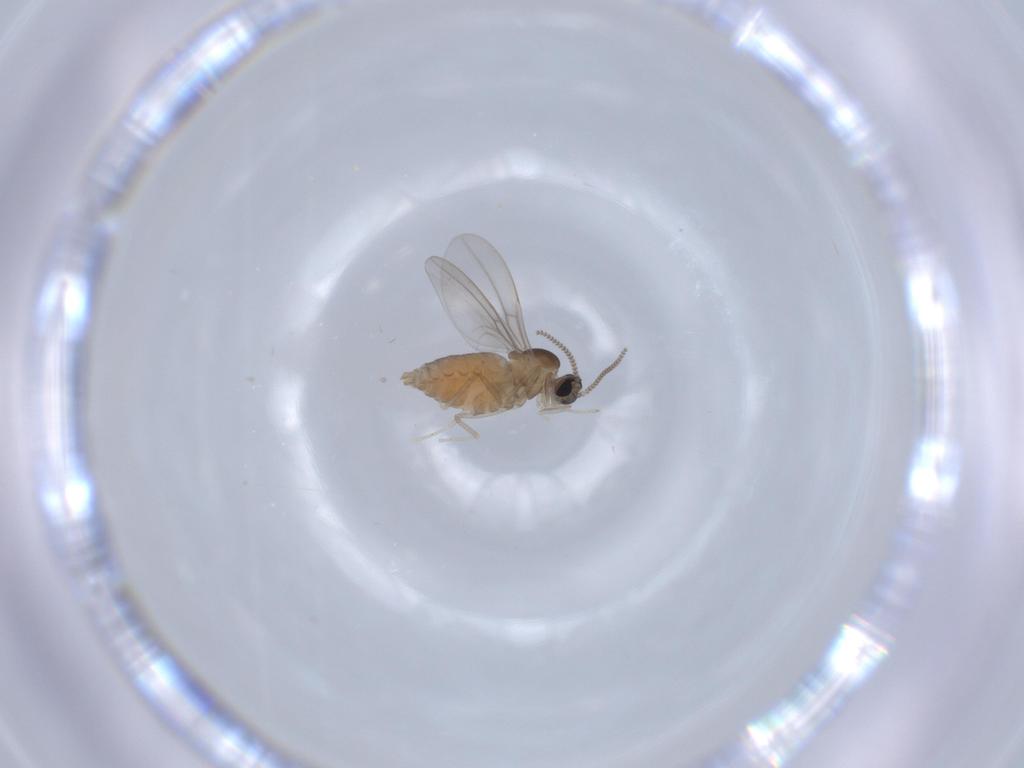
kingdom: Animalia
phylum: Arthropoda
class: Insecta
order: Diptera
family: Cecidomyiidae
